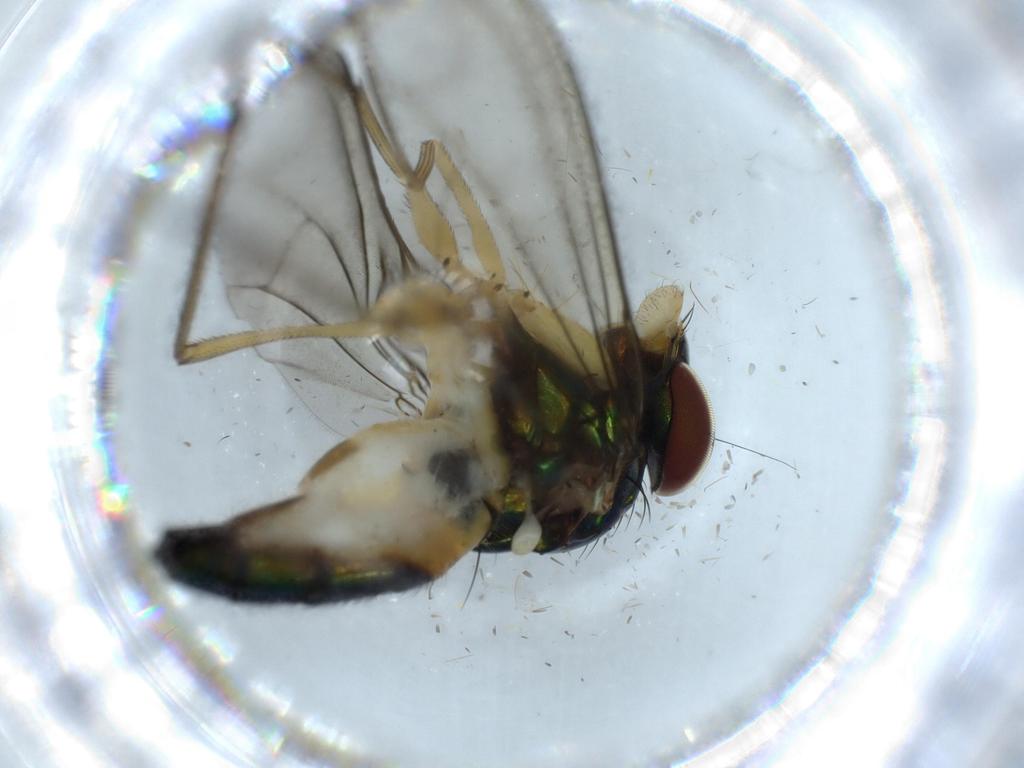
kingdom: Animalia
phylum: Arthropoda
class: Insecta
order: Diptera
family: Dolichopodidae
